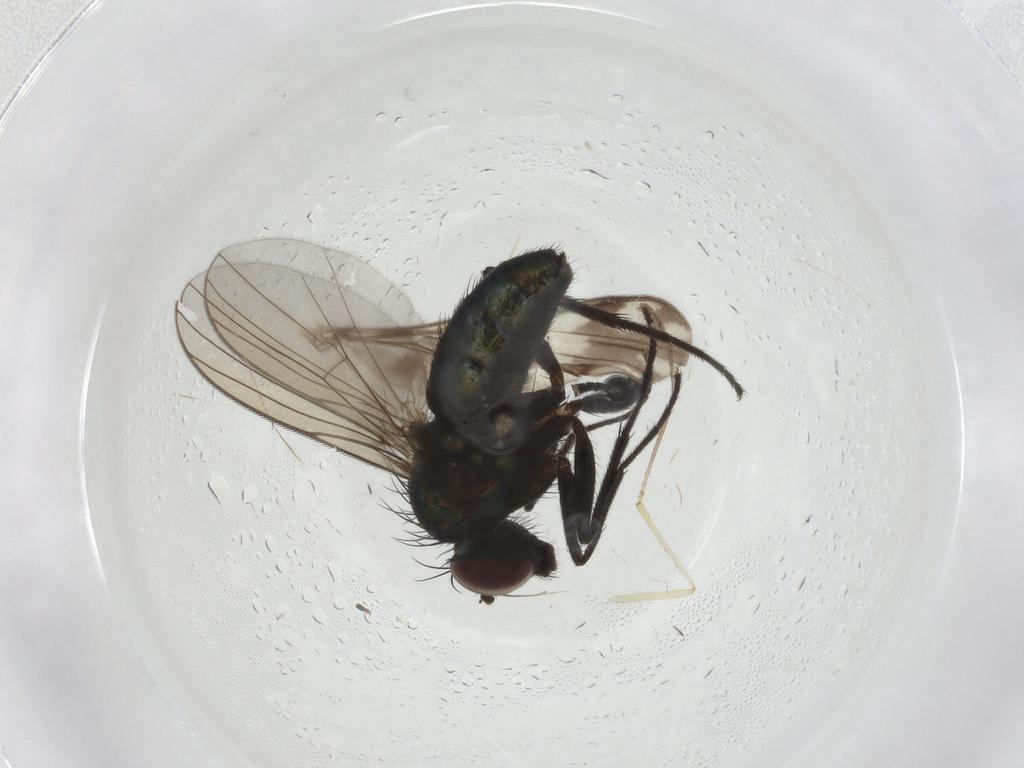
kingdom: Animalia
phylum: Arthropoda
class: Insecta
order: Diptera
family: Dolichopodidae
